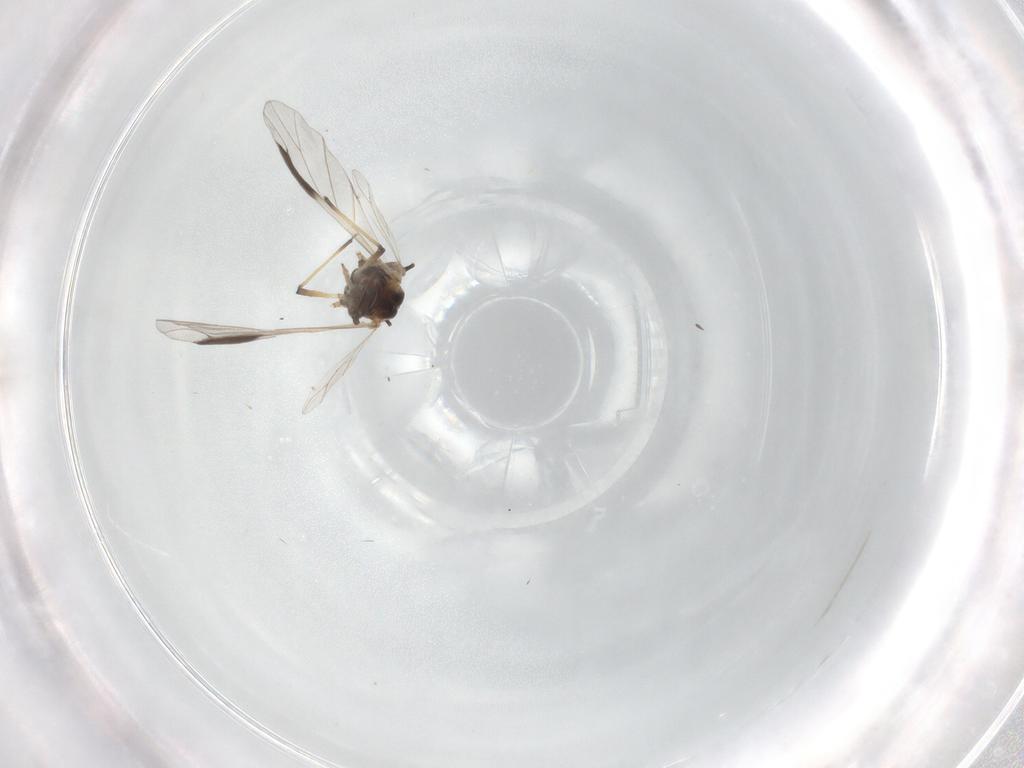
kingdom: Animalia
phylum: Arthropoda
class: Insecta
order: Hemiptera
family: Aphididae
